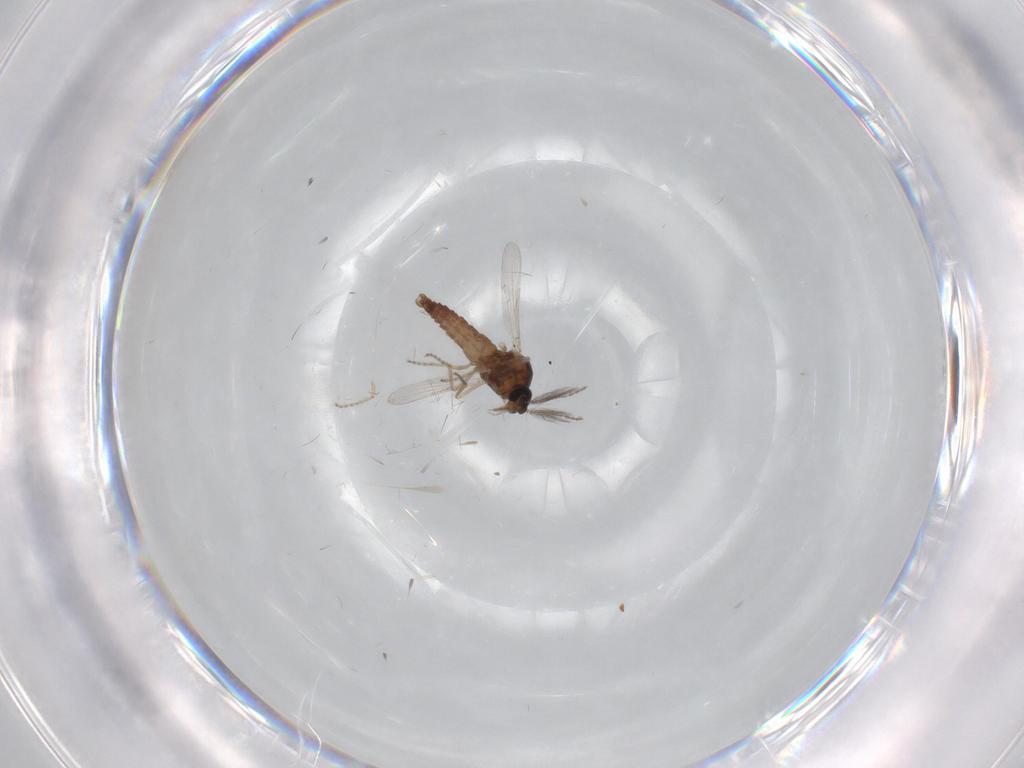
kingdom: Animalia
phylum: Arthropoda
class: Insecta
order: Diptera
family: Ceratopogonidae
